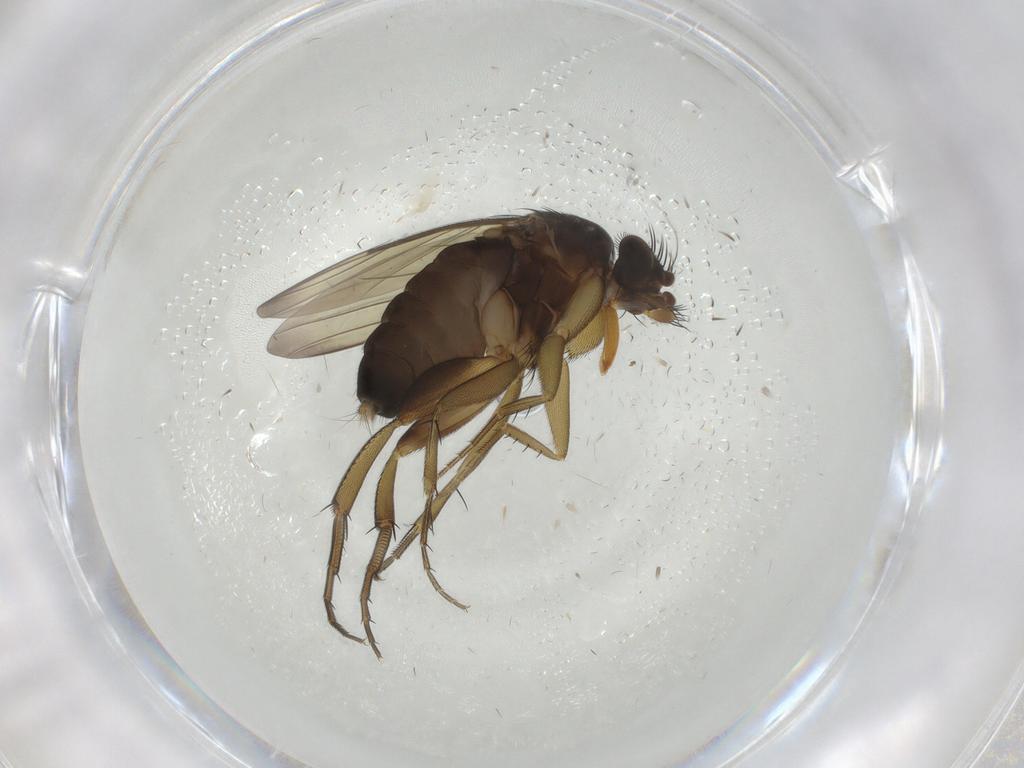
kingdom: Animalia
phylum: Arthropoda
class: Insecta
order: Diptera
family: Phoridae
